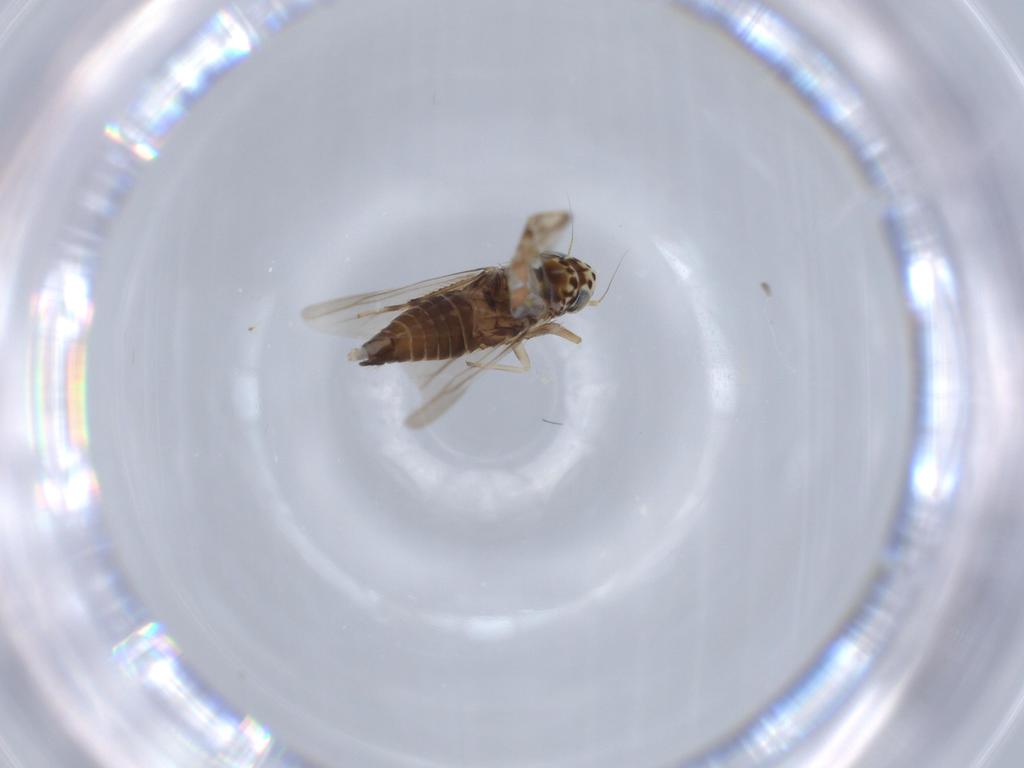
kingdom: Animalia
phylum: Arthropoda
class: Insecta
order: Hemiptera
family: Cicadellidae
